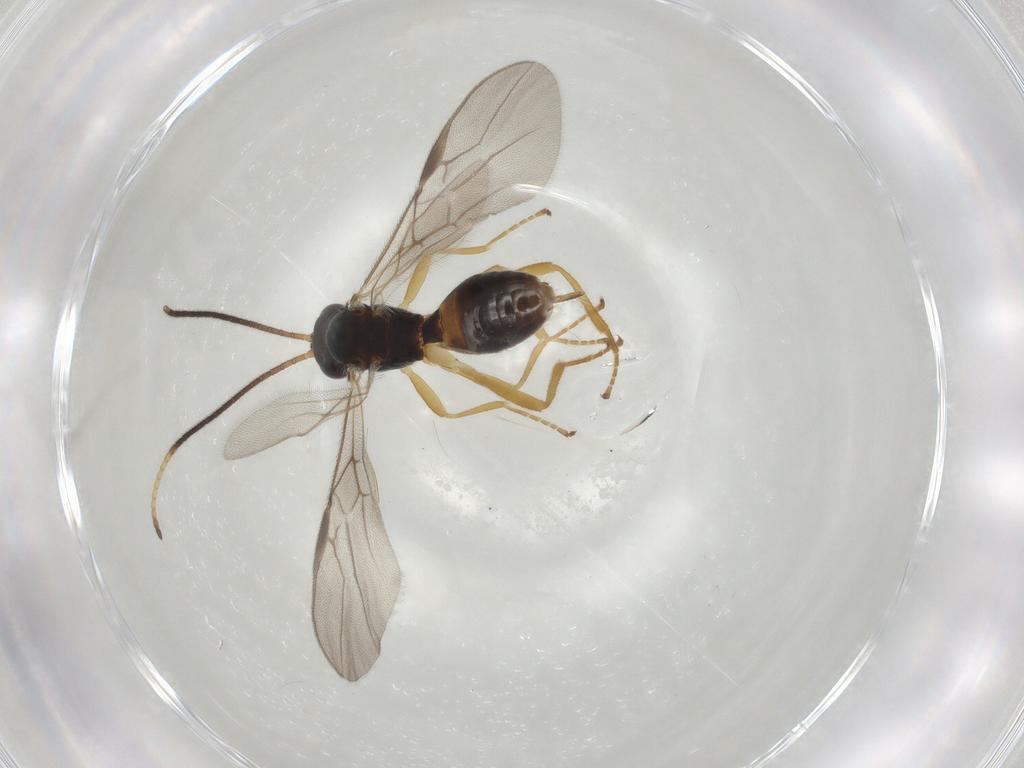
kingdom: Animalia
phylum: Arthropoda
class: Insecta
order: Hymenoptera
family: Braconidae
